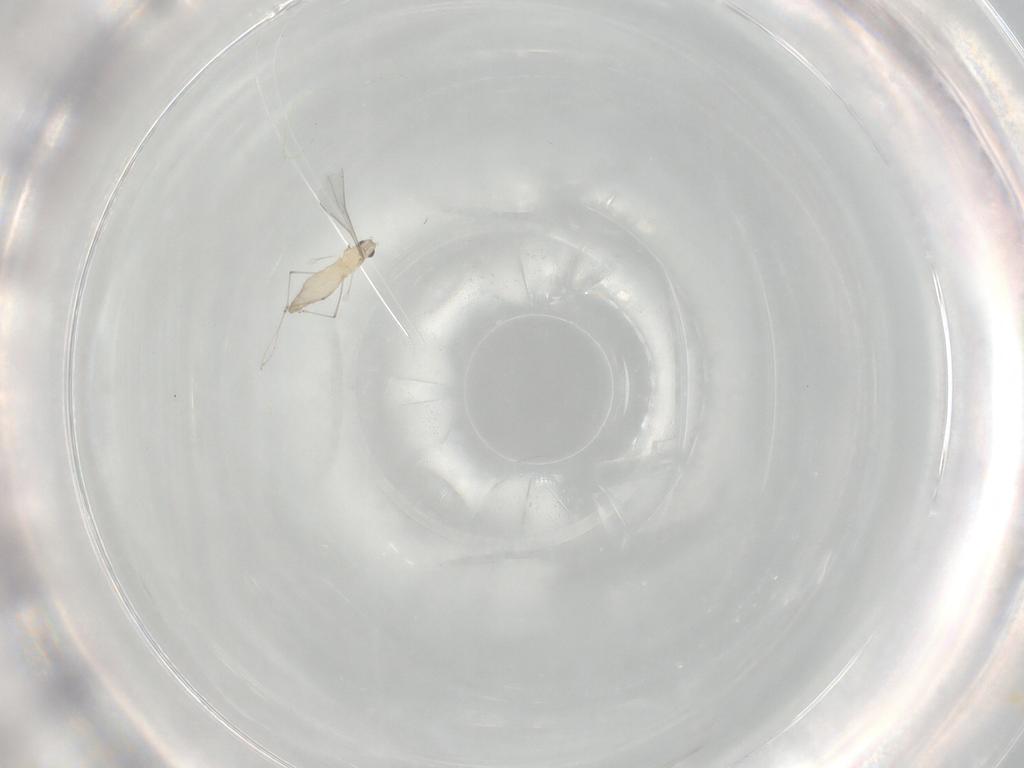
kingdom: Animalia
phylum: Arthropoda
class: Insecta
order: Diptera
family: Cecidomyiidae
